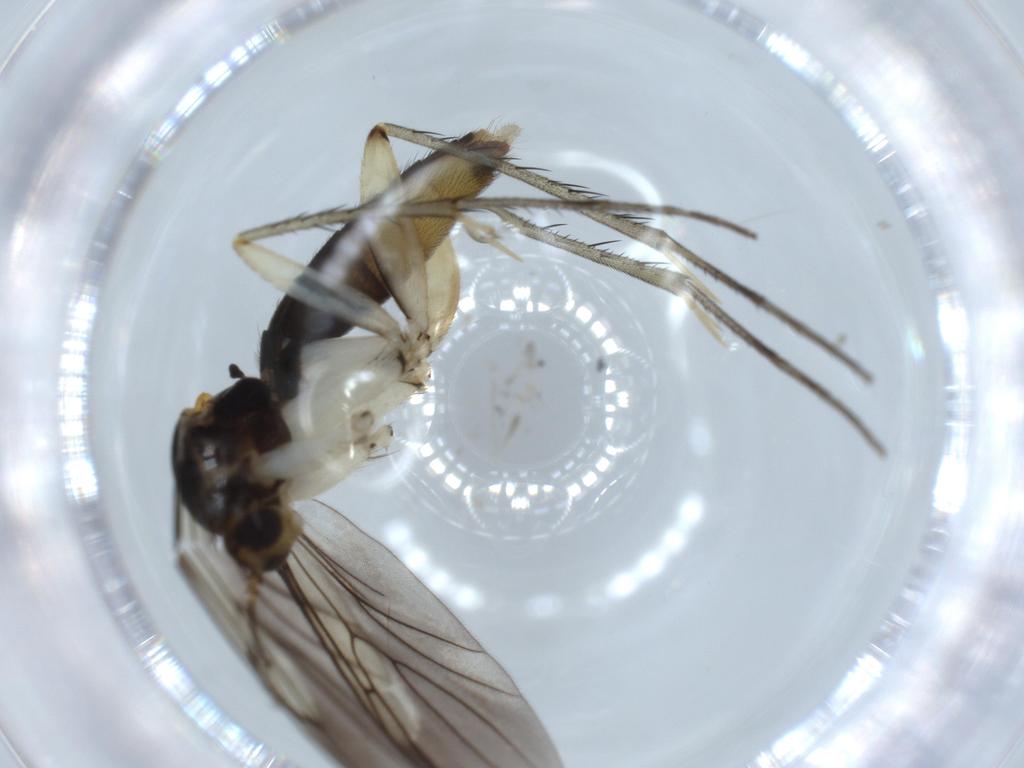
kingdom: Animalia
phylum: Arthropoda
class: Insecta
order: Diptera
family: Mycetophilidae
